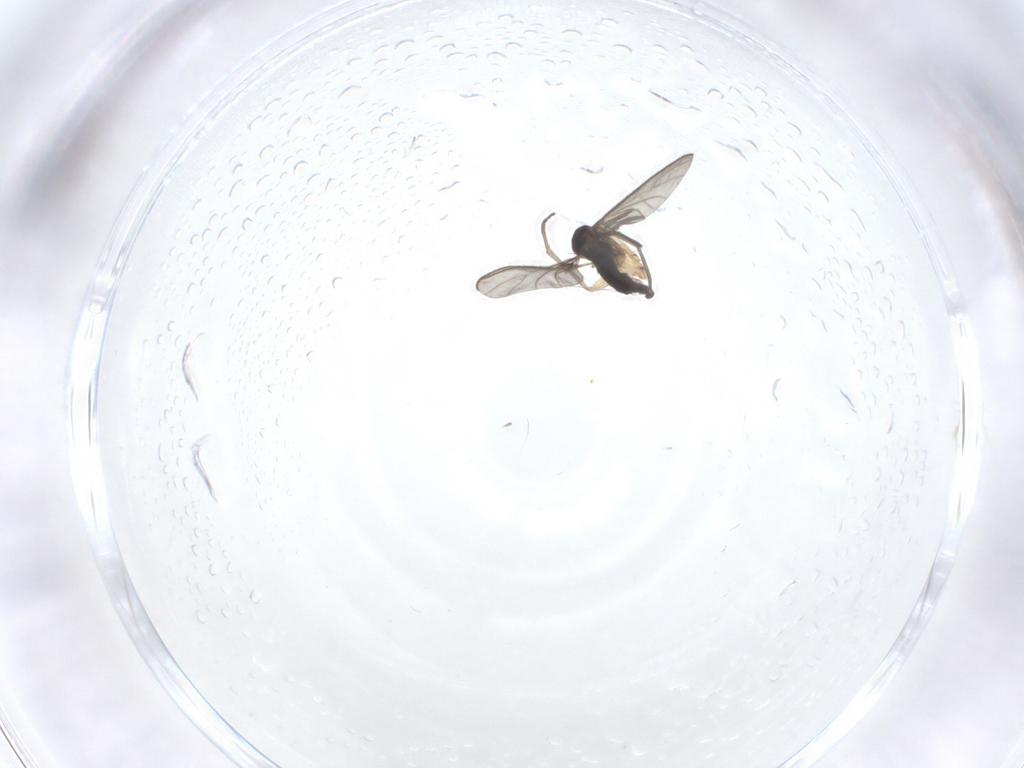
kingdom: Animalia
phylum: Arthropoda
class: Insecta
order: Diptera
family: Sciaridae
